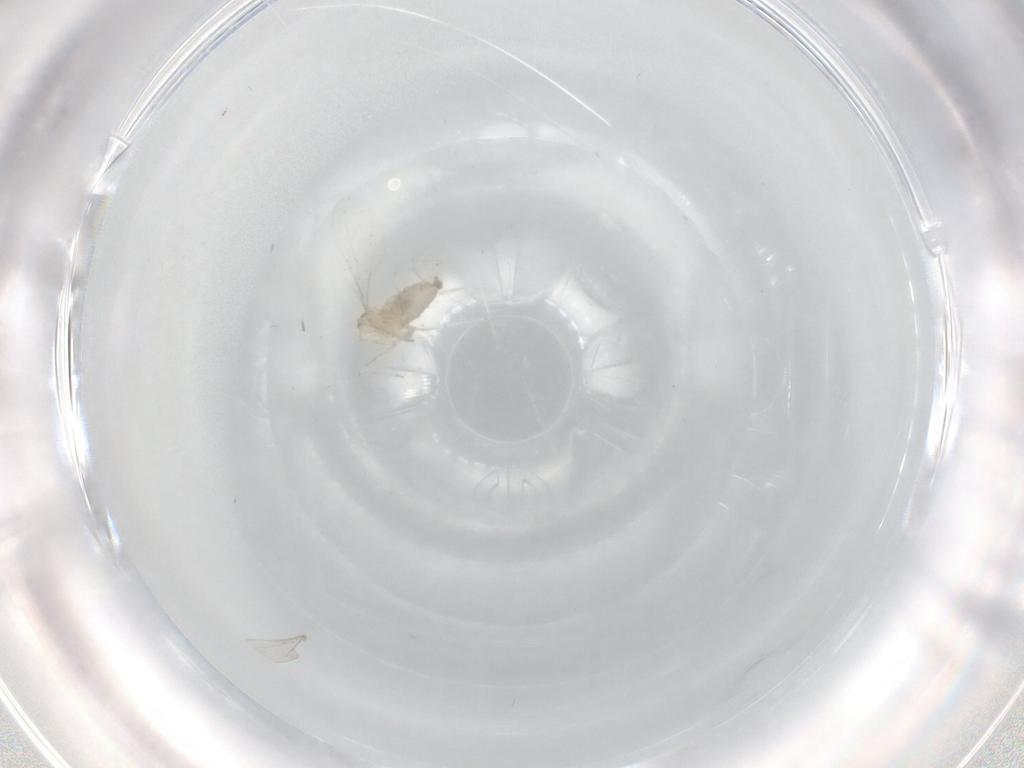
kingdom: Animalia
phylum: Arthropoda
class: Insecta
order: Diptera
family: Cecidomyiidae
